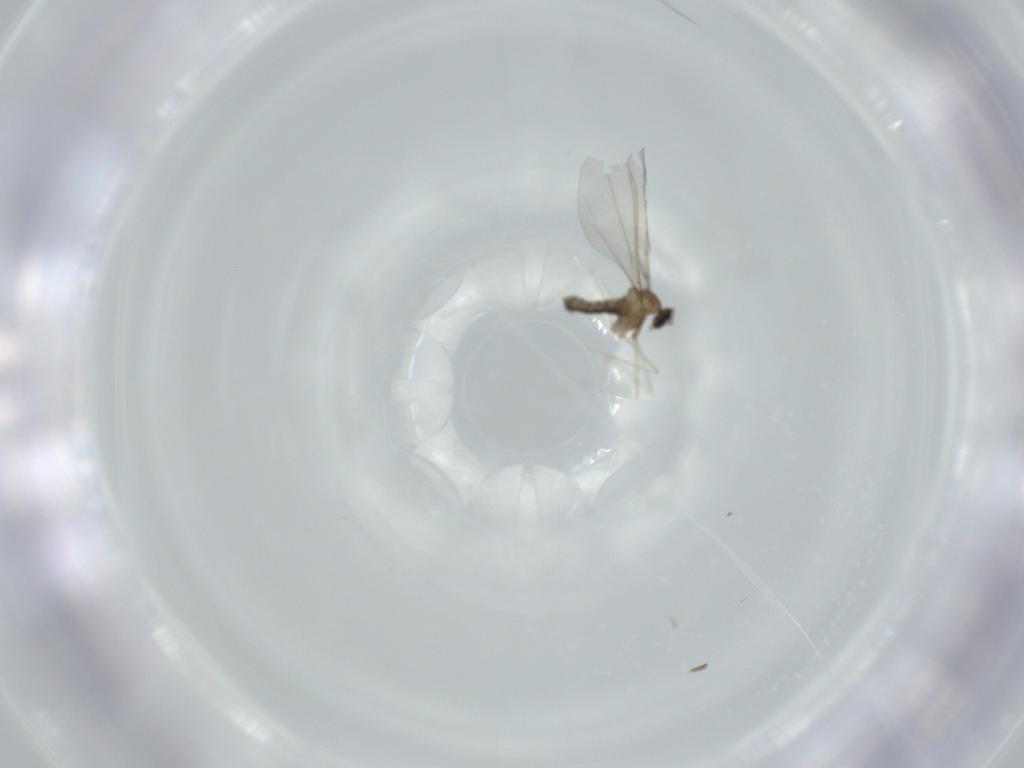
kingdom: Animalia
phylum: Arthropoda
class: Insecta
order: Diptera
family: Cecidomyiidae
